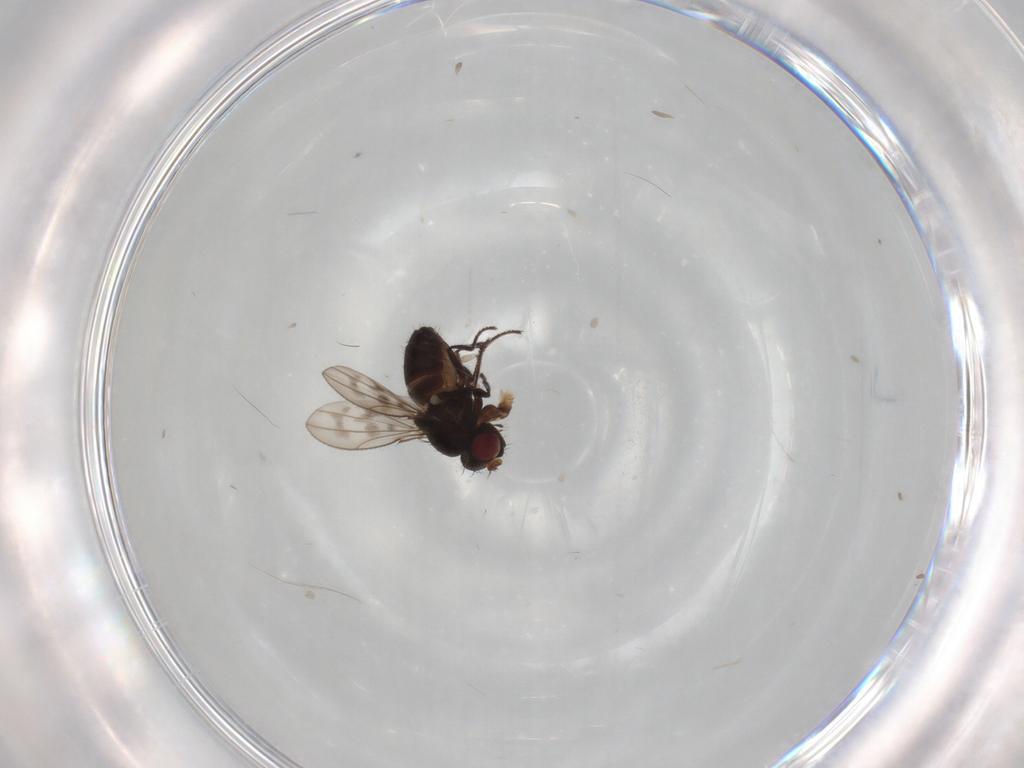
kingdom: Animalia
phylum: Arthropoda
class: Insecta
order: Diptera
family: Ephydridae
